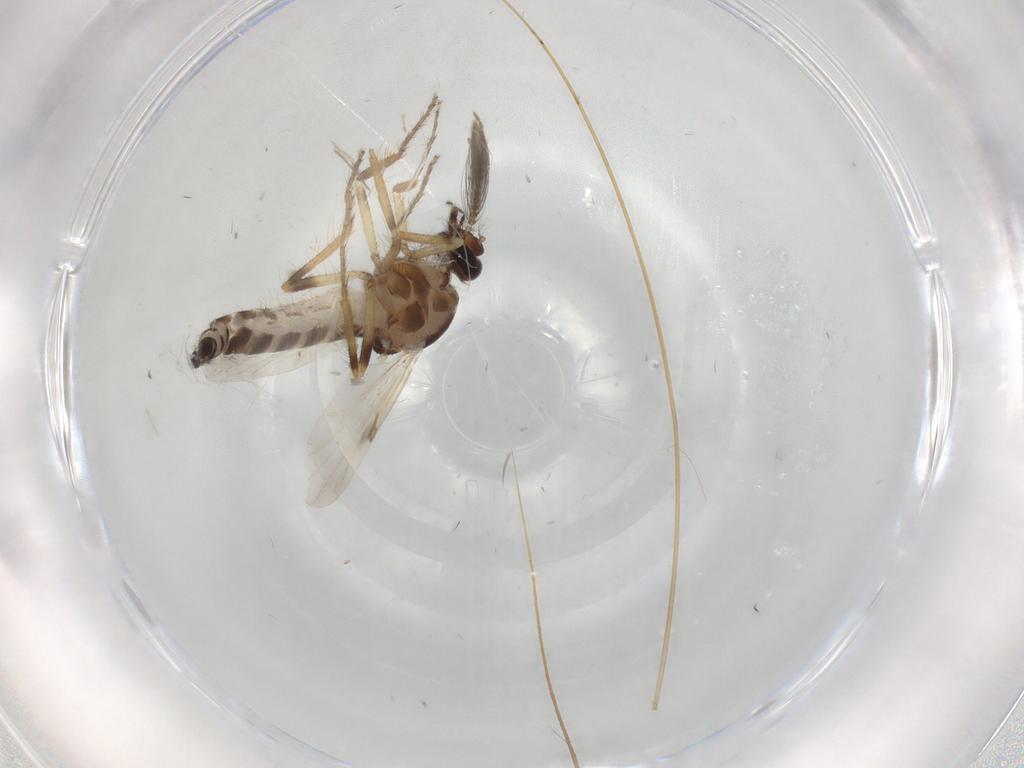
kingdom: Animalia
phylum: Arthropoda
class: Insecta
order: Diptera
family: Ceratopogonidae
